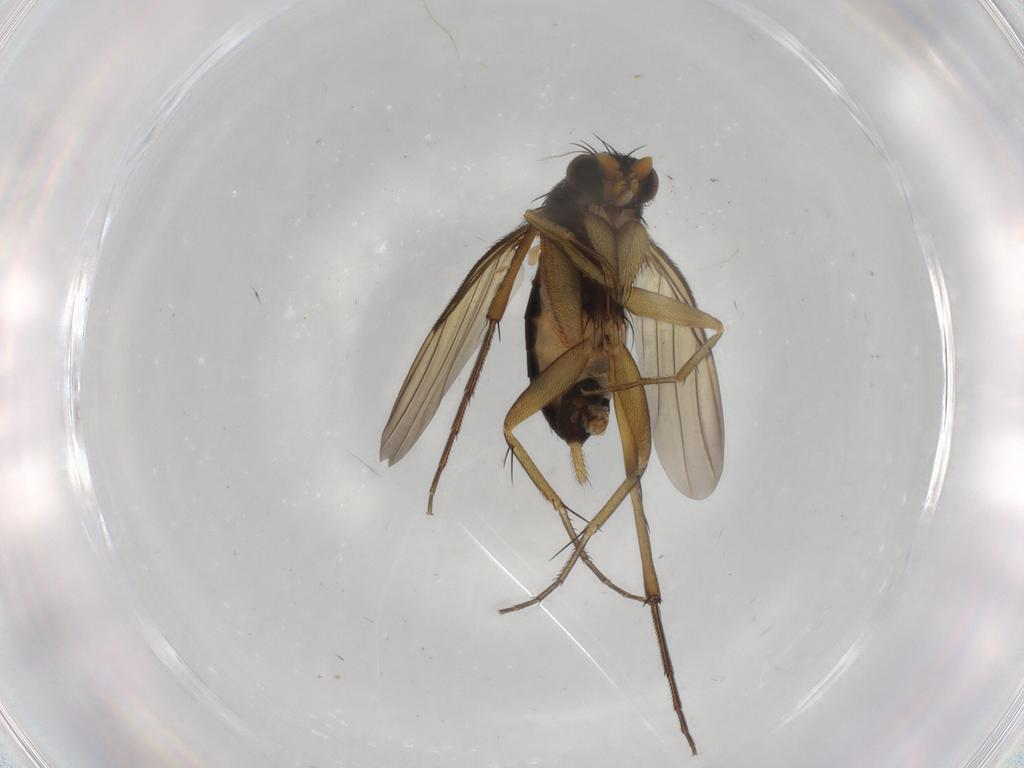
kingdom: Animalia
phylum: Arthropoda
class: Insecta
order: Diptera
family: Phoridae
